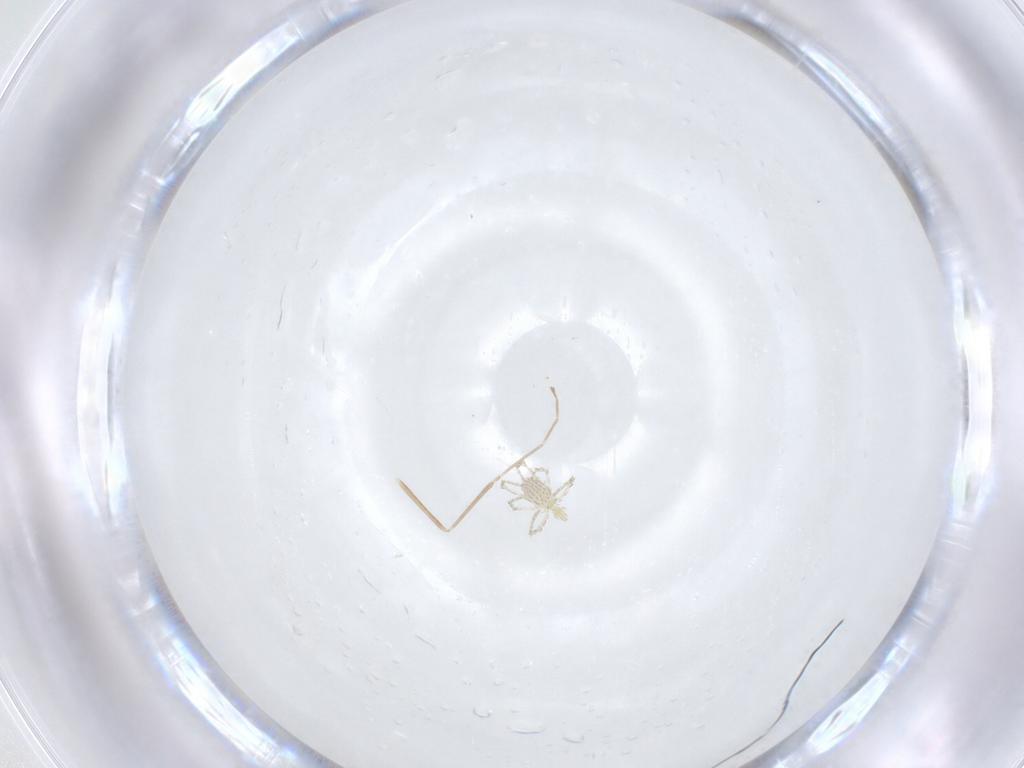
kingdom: Animalia
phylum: Arthropoda
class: Insecta
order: Diptera
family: Cecidomyiidae
